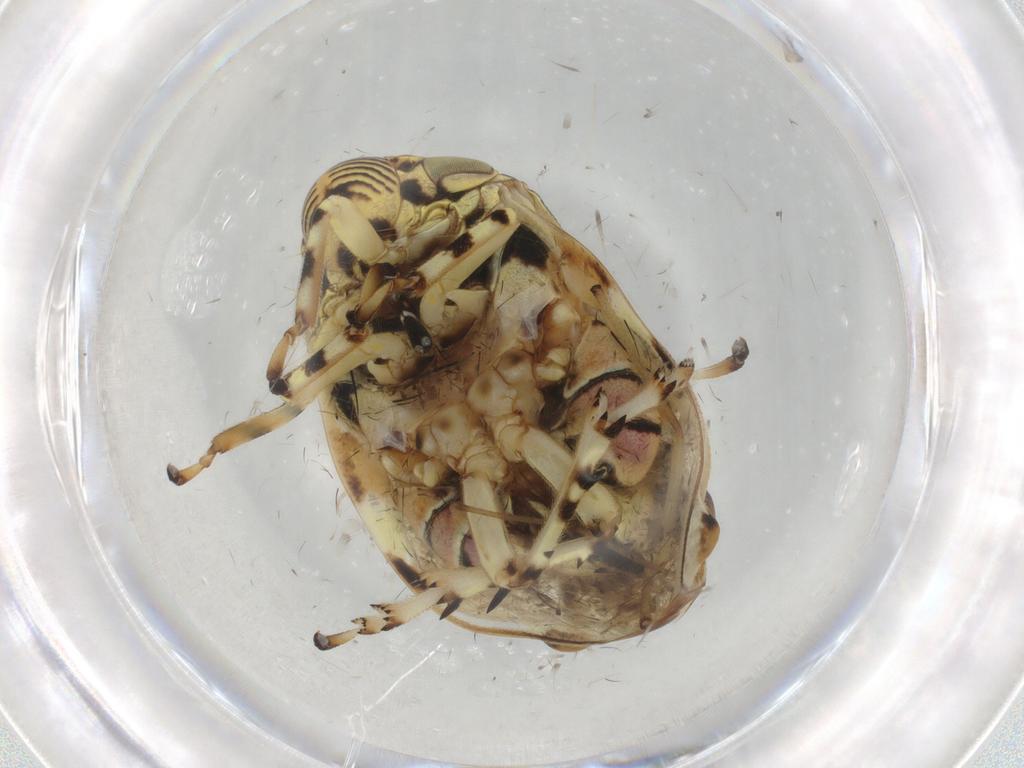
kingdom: Animalia
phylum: Arthropoda
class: Insecta
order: Hemiptera
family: Clastopteridae
